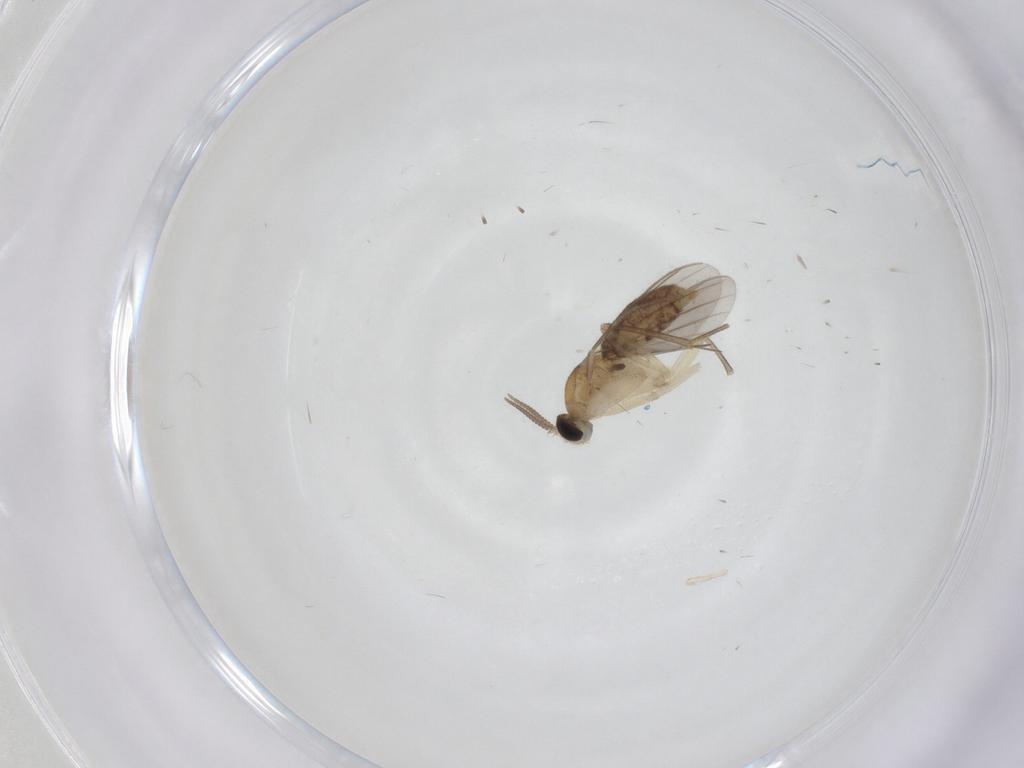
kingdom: Animalia
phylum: Arthropoda
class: Insecta
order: Diptera
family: Mycetophilidae
